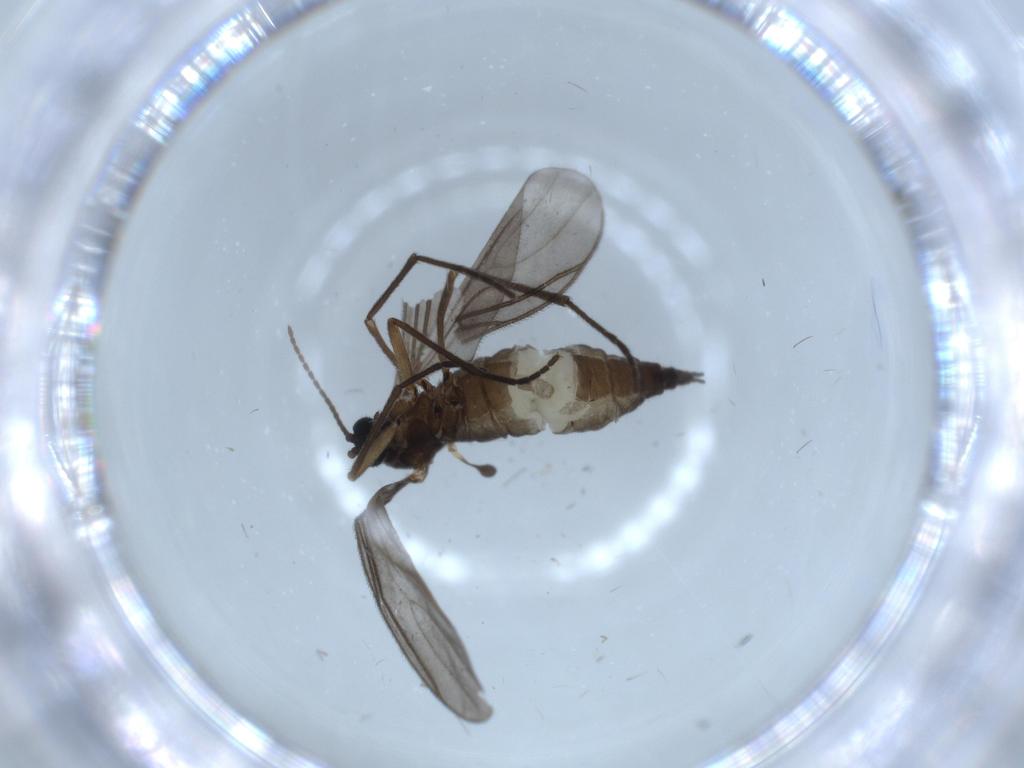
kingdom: Animalia
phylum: Arthropoda
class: Insecta
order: Diptera
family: Sciaridae
